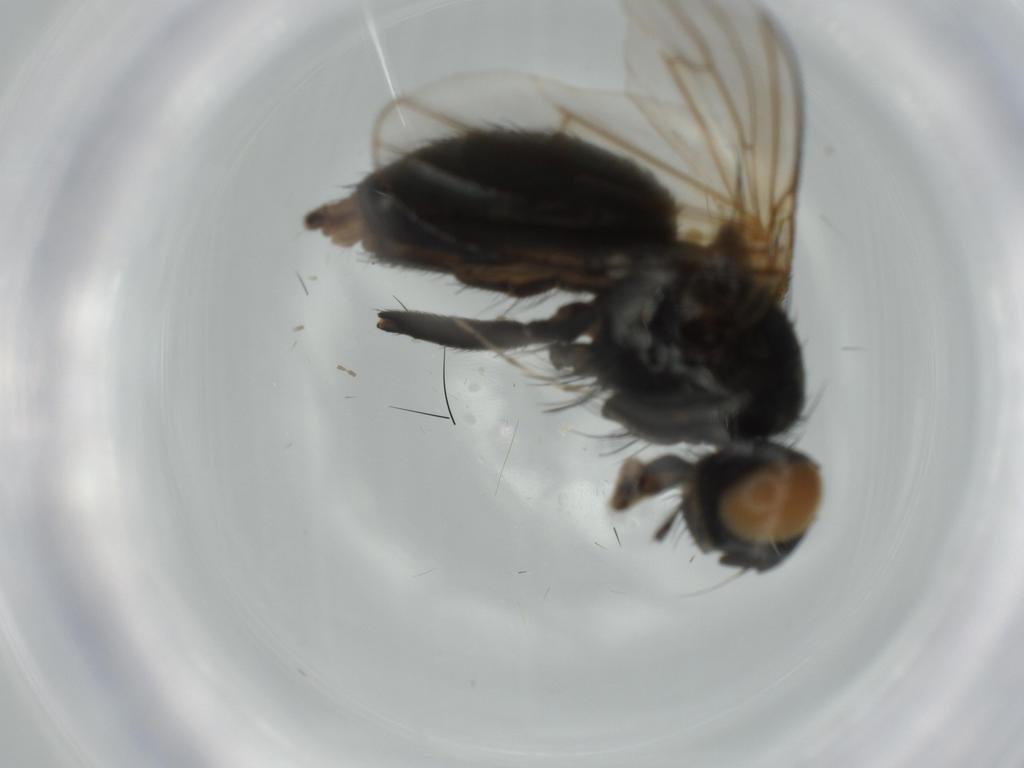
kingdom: Animalia
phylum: Arthropoda
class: Insecta
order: Diptera
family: Muscidae
